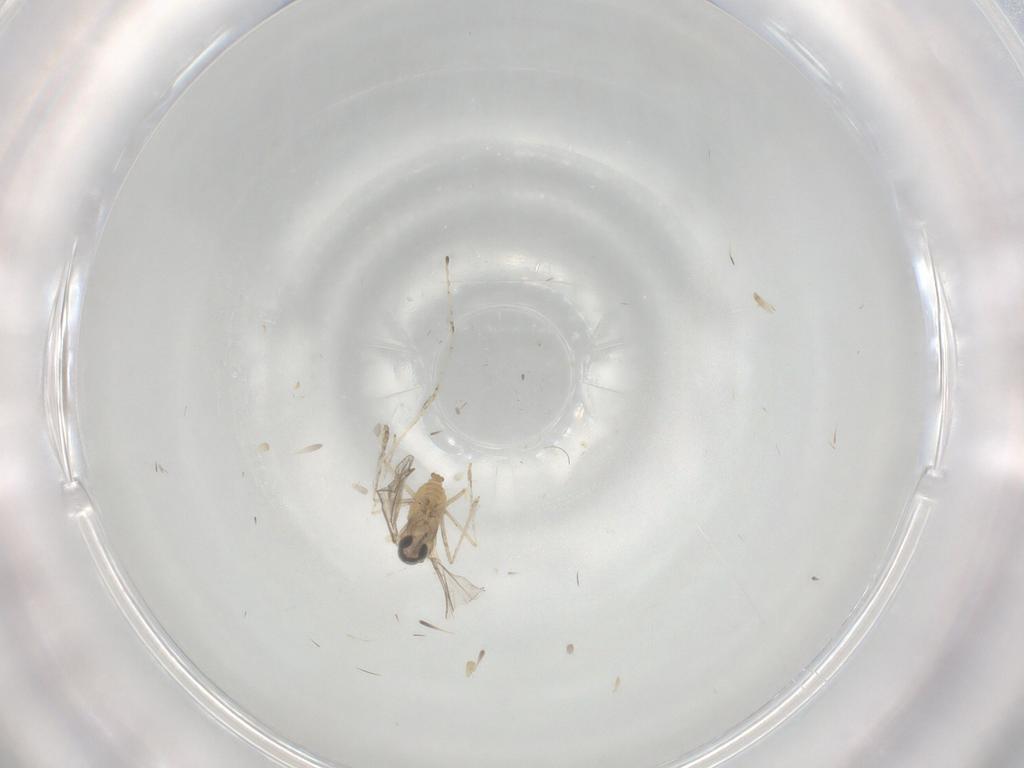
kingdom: Animalia
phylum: Arthropoda
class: Insecta
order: Diptera
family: Cecidomyiidae
